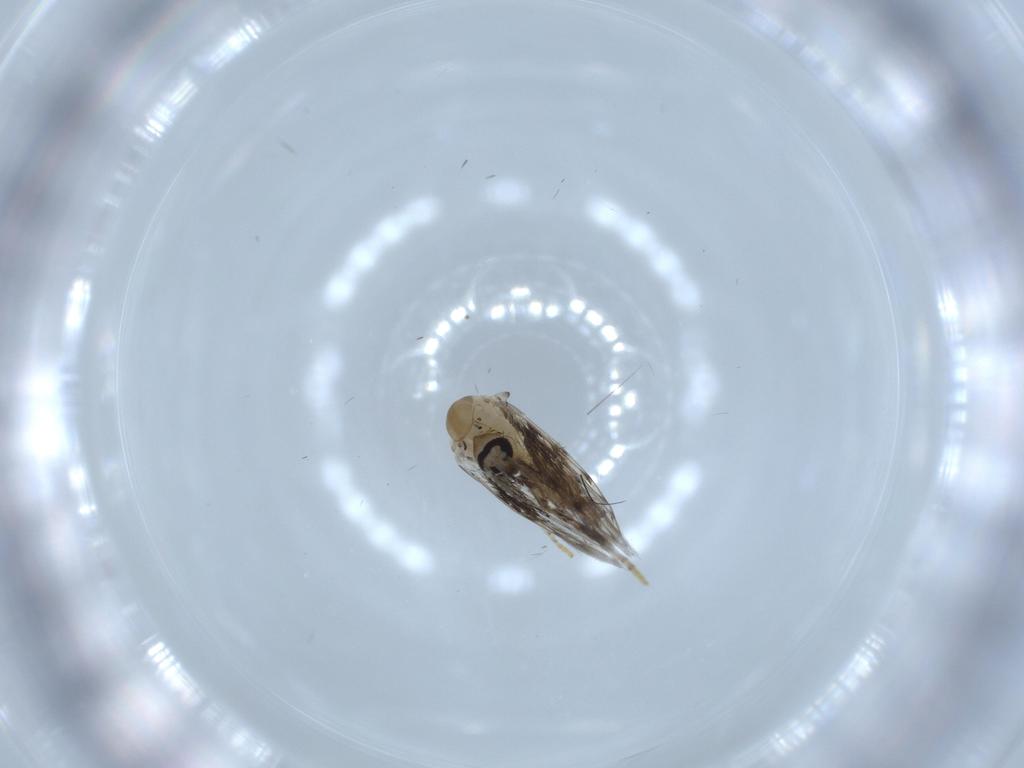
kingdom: Animalia
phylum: Arthropoda
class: Insecta
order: Diptera
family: Psychodidae
